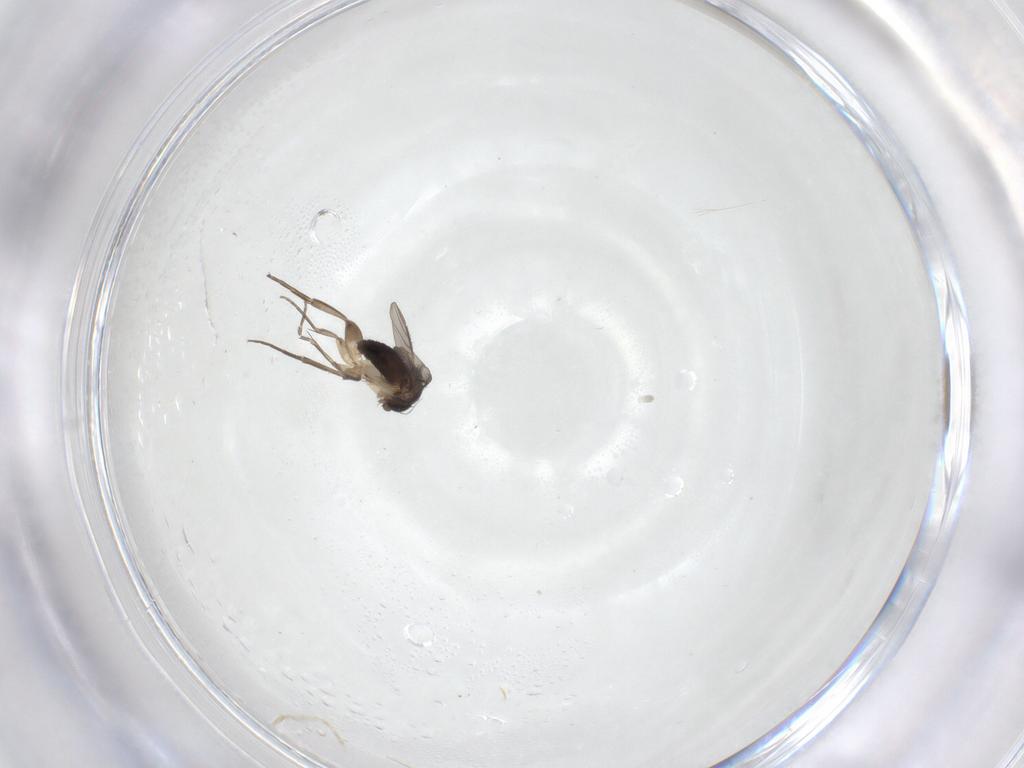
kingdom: Animalia
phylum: Arthropoda
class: Insecta
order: Diptera
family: Phoridae
